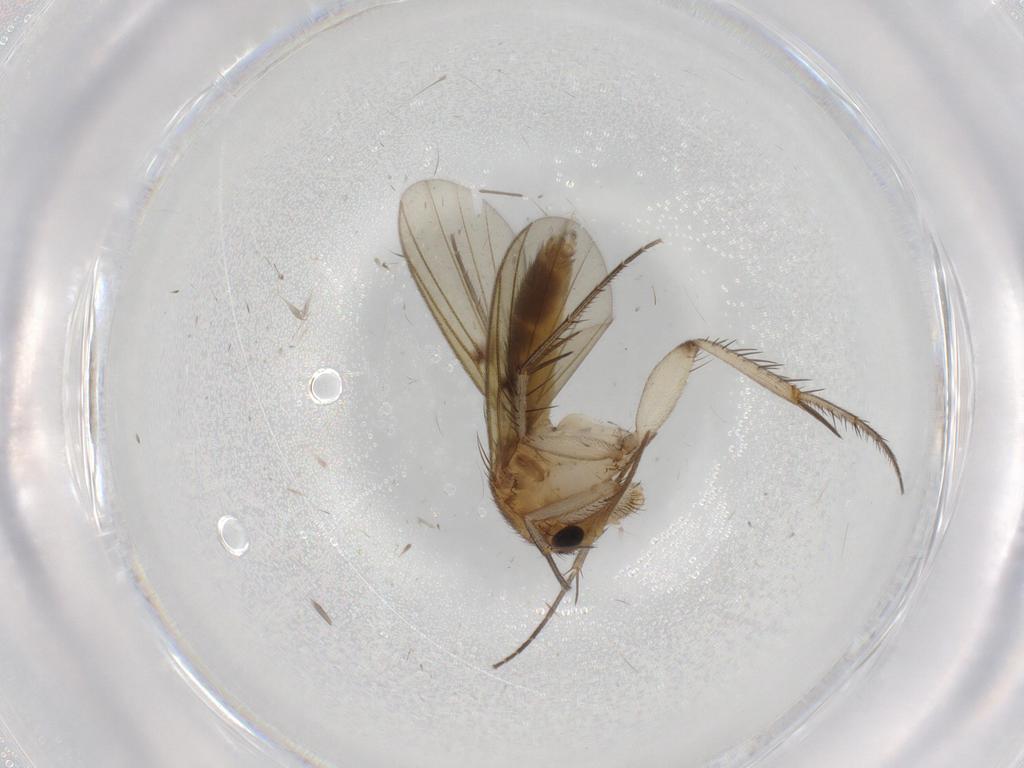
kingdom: Animalia
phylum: Arthropoda
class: Insecta
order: Diptera
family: Mycetophilidae
